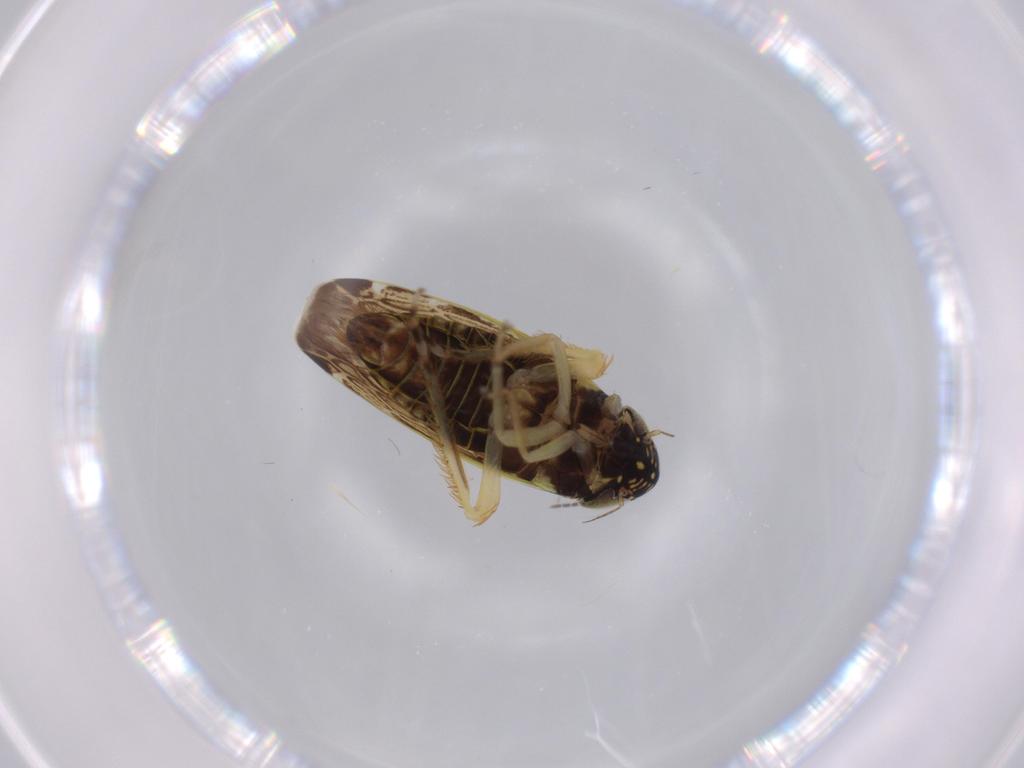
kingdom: Animalia
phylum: Arthropoda
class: Insecta
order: Hemiptera
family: Cicadellidae
